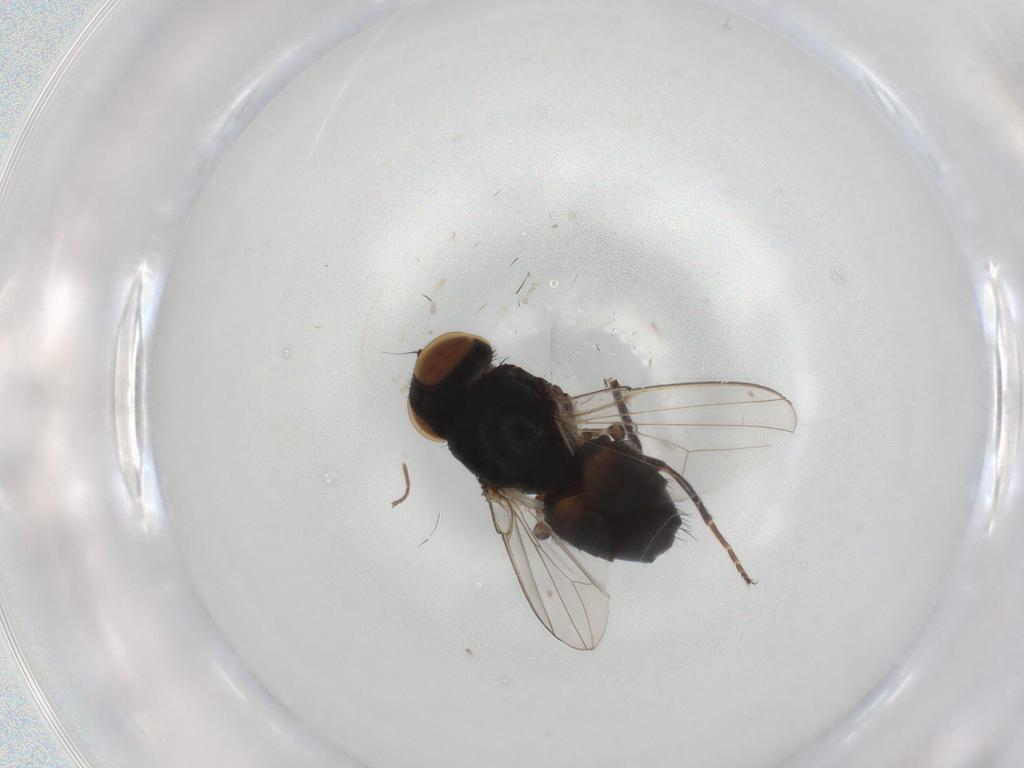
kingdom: Animalia
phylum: Arthropoda
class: Insecta
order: Diptera
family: Milichiidae
